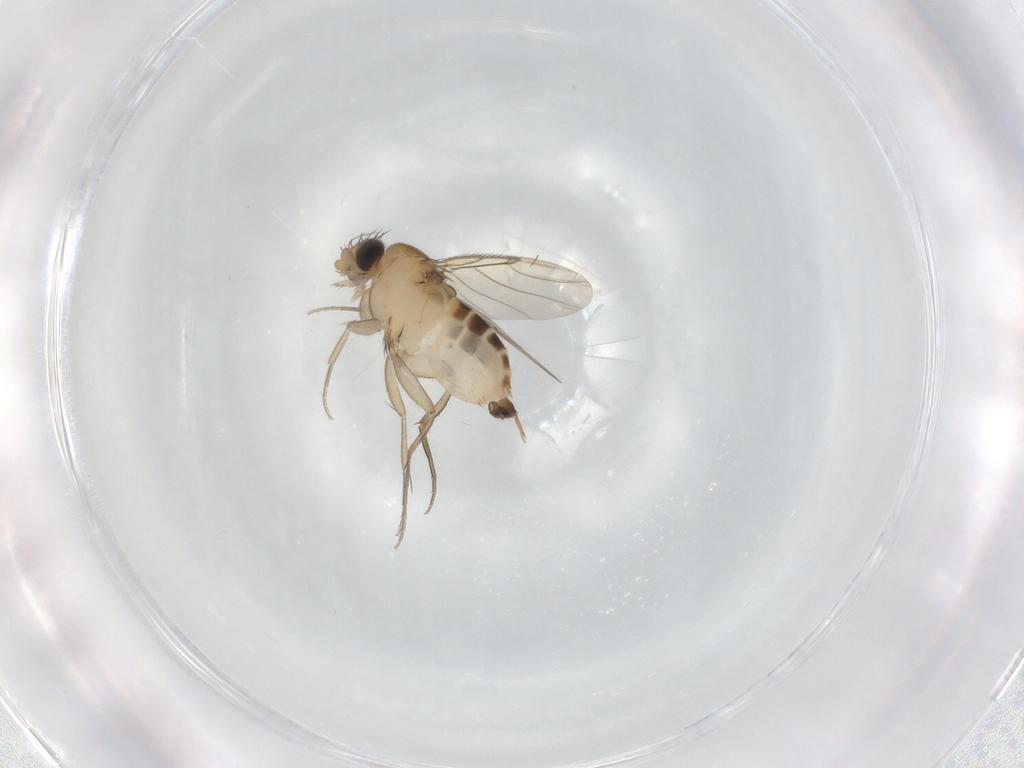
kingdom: Animalia
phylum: Arthropoda
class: Insecta
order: Diptera
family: Phoridae
